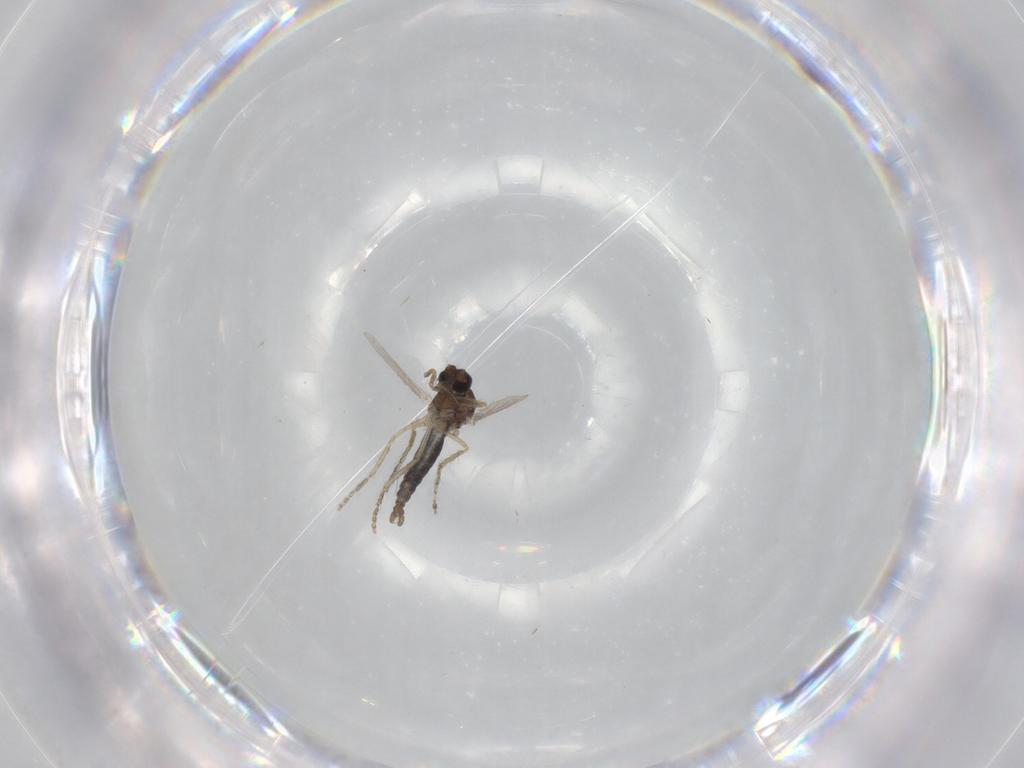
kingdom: Animalia
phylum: Arthropoda
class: Insecta
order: Diptera
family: Ceratopogonidae
